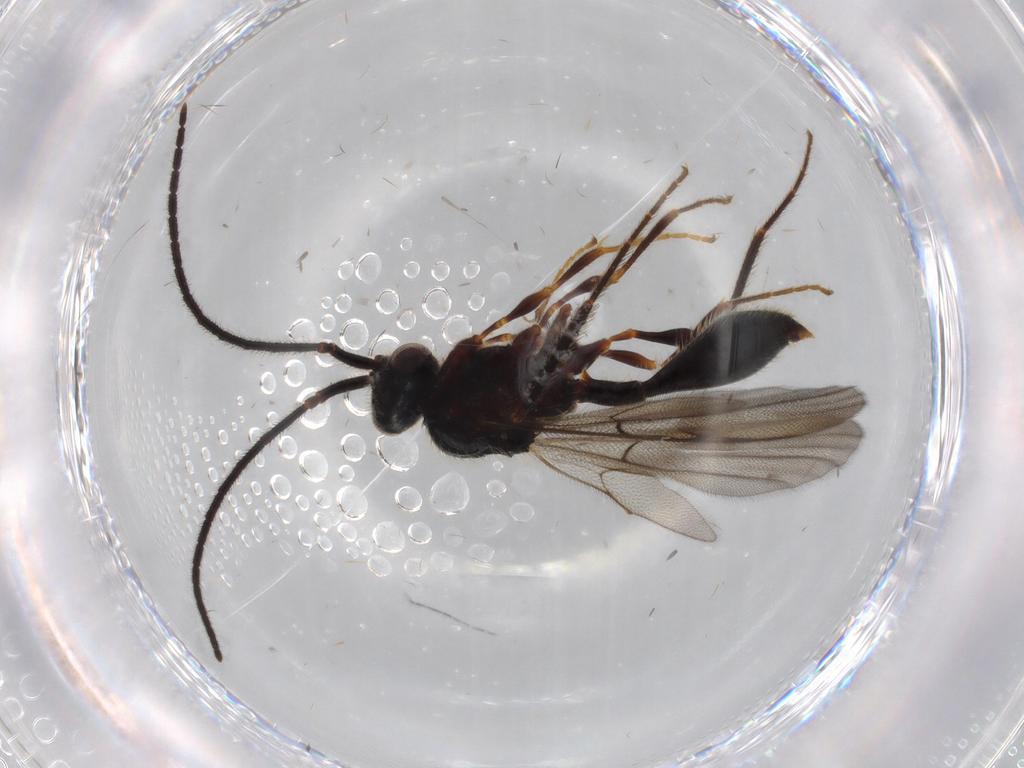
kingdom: Animalia
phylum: Arthropoda
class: Insecta
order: Hymenoptera
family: Diapriidae
